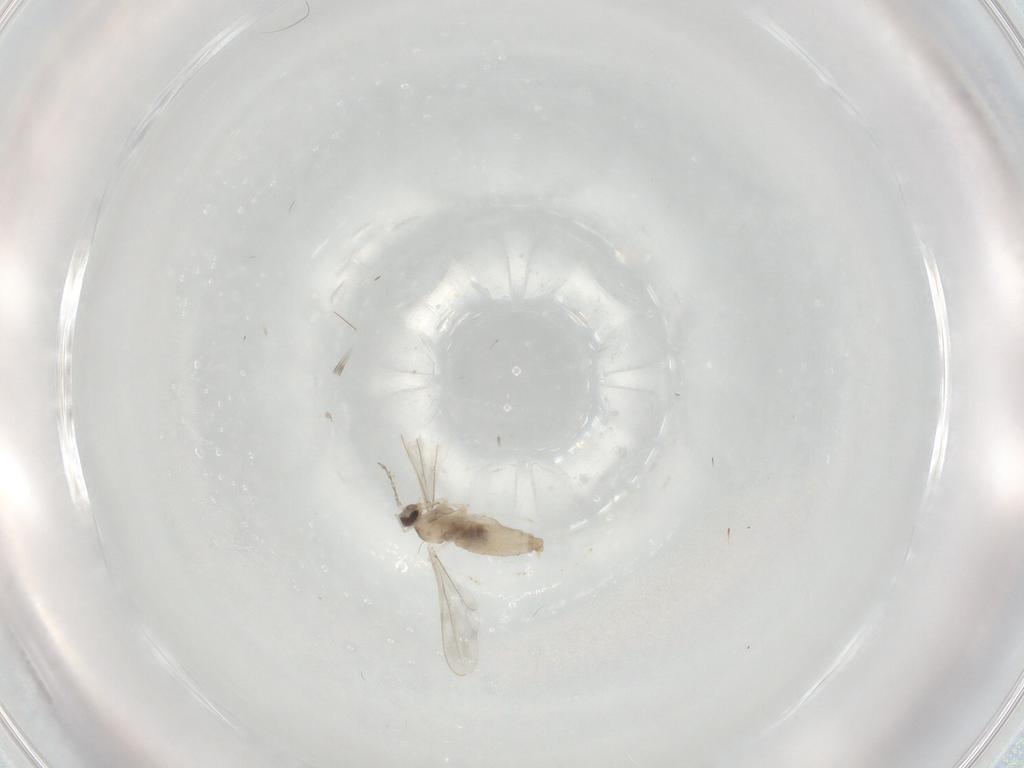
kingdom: Animalia
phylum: Arthropoda
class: Insecta
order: Diptera
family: Cecidomyiidae
